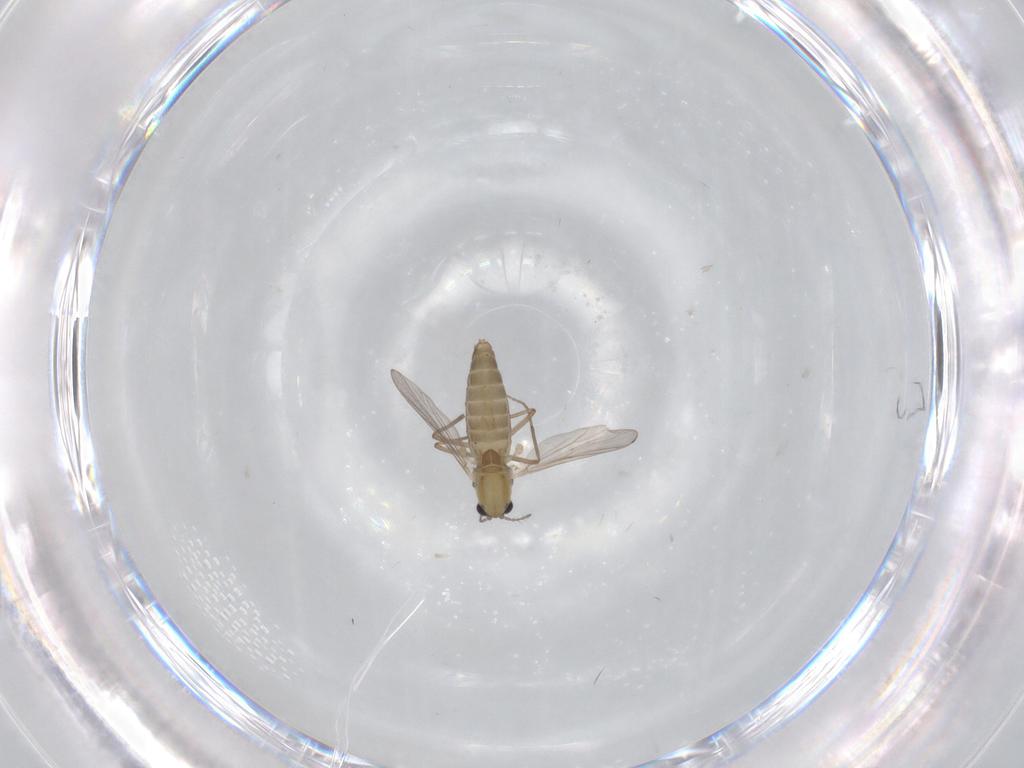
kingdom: Animalia
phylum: Arthropoda
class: Insecta
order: Diptera
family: Chironomidae
